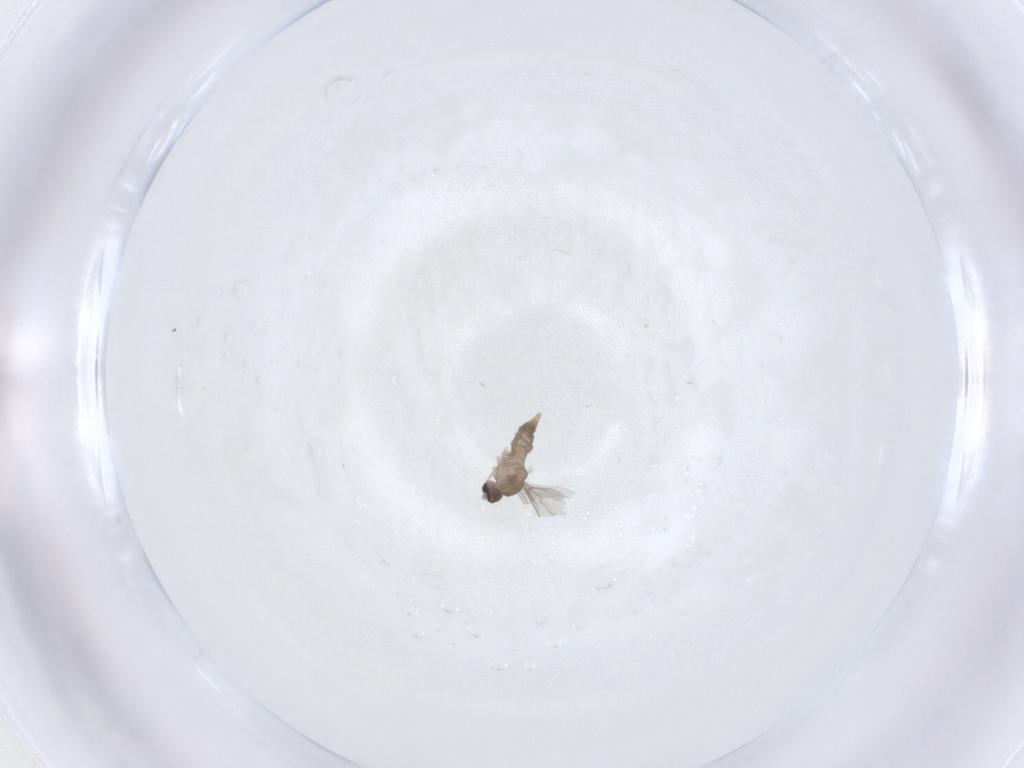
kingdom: Animalia
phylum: Arthropoda
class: Insecta
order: Diptera
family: Cecidomyiidae
